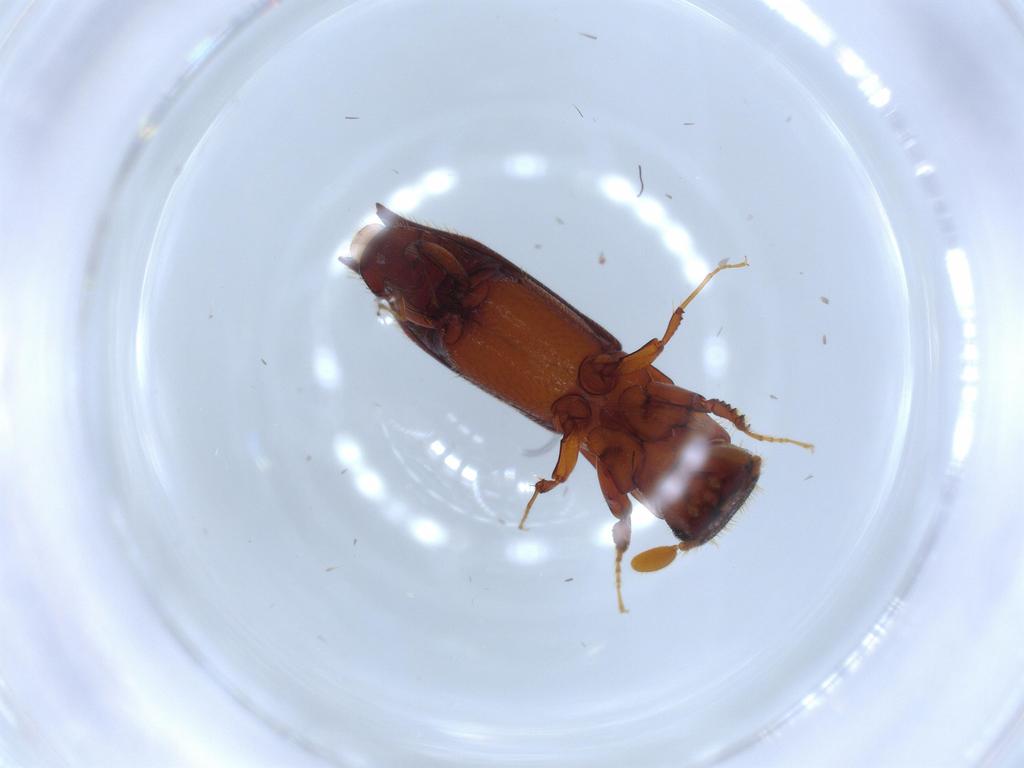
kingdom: Animalia
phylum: Arthropoda
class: Insecta
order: Coleoptera
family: Curculionidae
